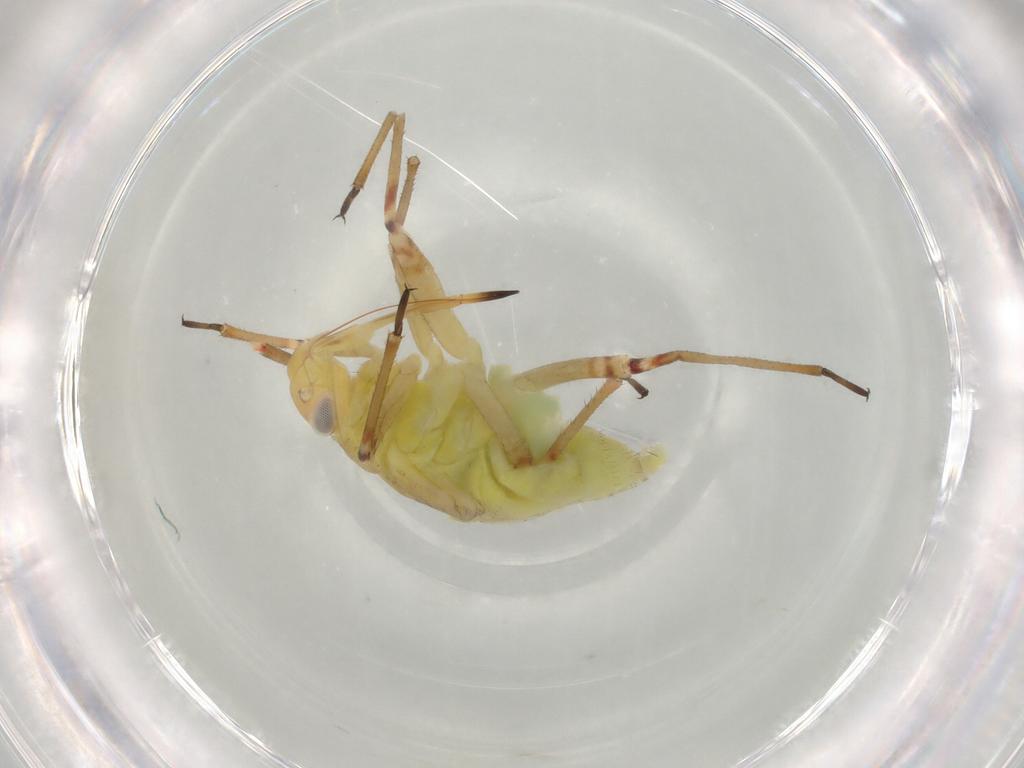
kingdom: Animalia
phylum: Arthropoda
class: Insecta
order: Hemiptera
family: Miridae
